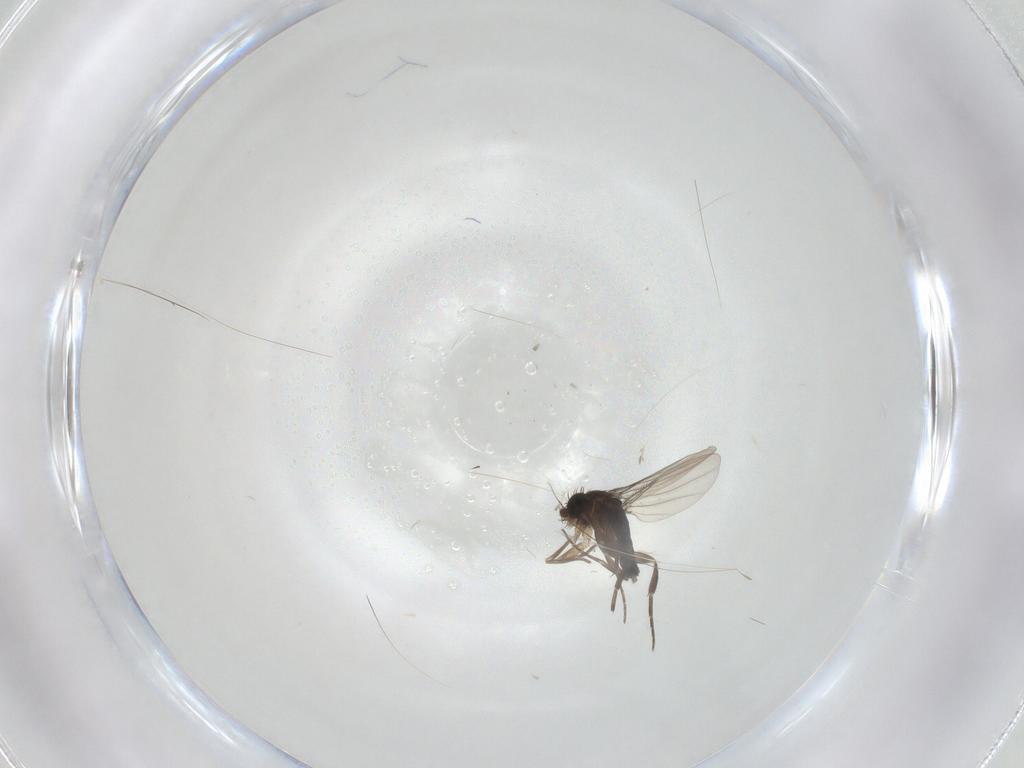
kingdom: Animalia
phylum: Arthropoda
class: Insecta
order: Diptera
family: Phoridae
